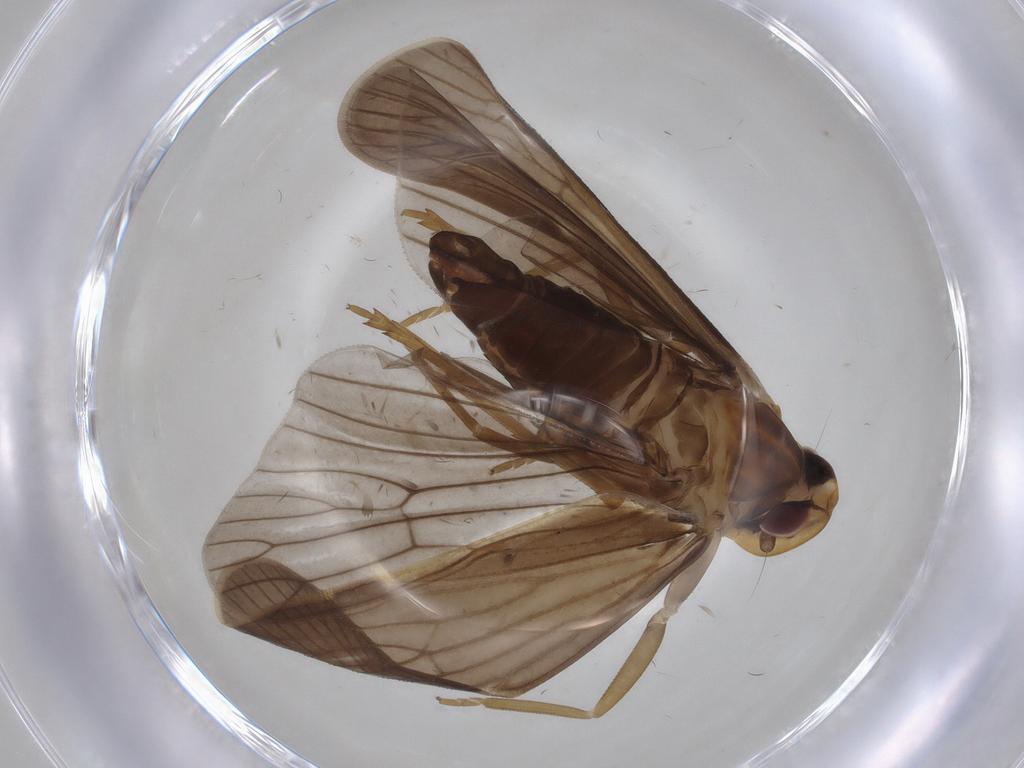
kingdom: Animalia
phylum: Arthropoda
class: Insecta
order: Hemiptera
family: Cixiidae
